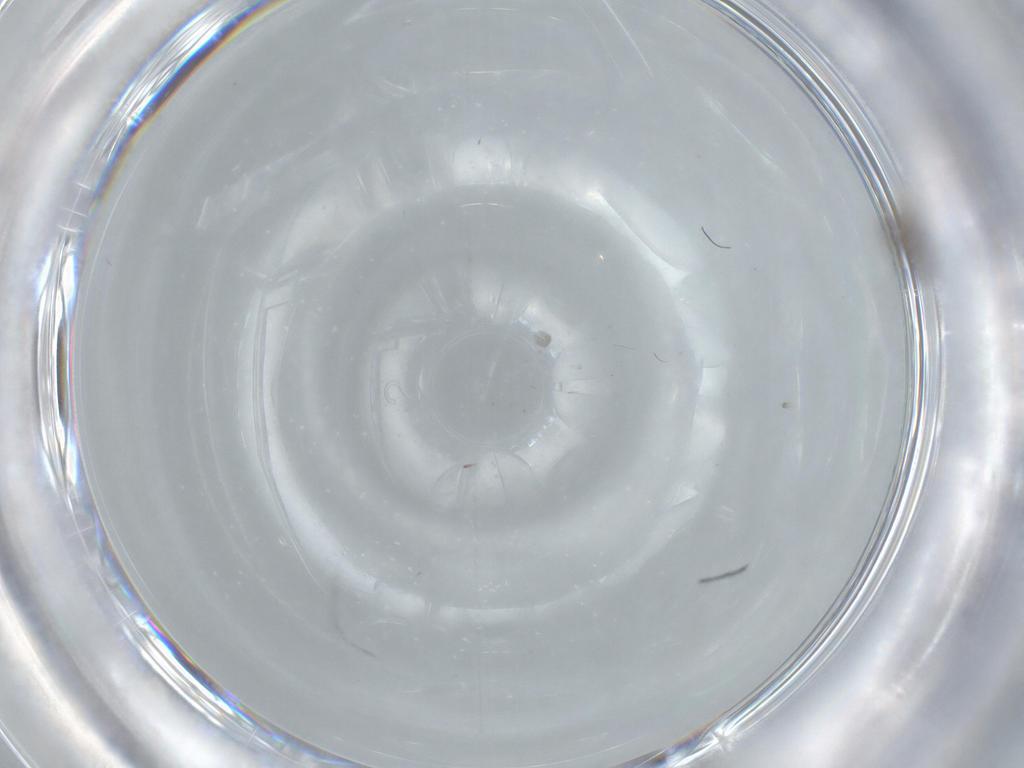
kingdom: Animalia
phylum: Arthropoda
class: Insecta
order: Diptera
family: Cecidomyiidae
